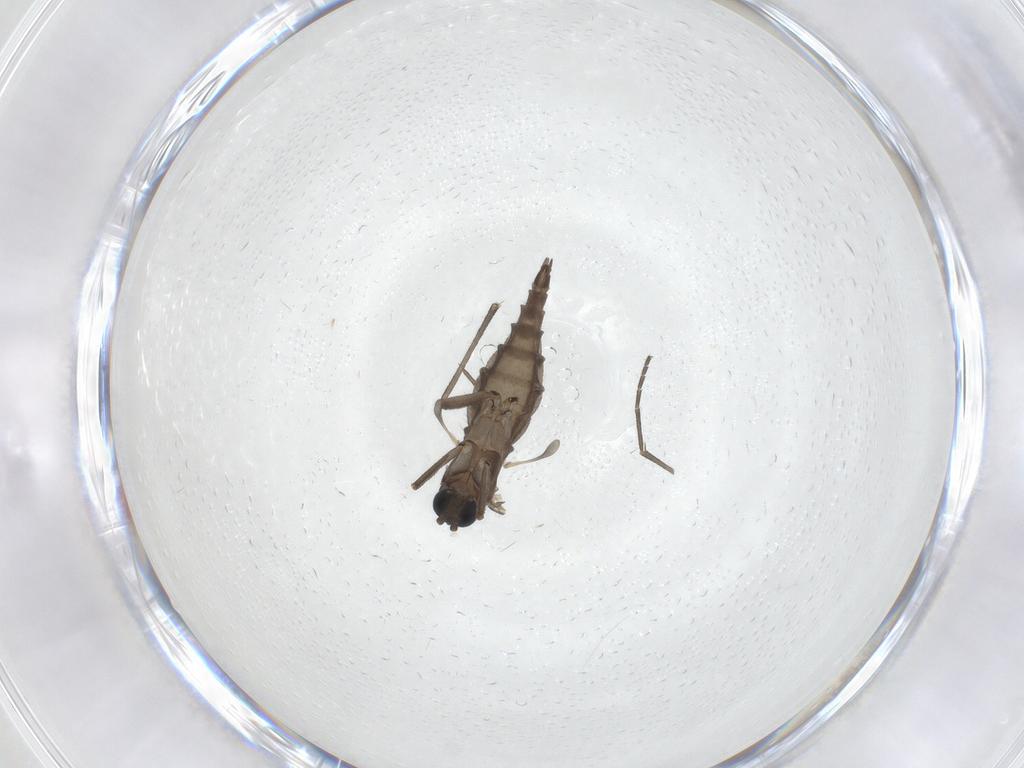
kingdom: Animalia
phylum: Arthropoda
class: Insecta
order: Diptera
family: Sciaridae
